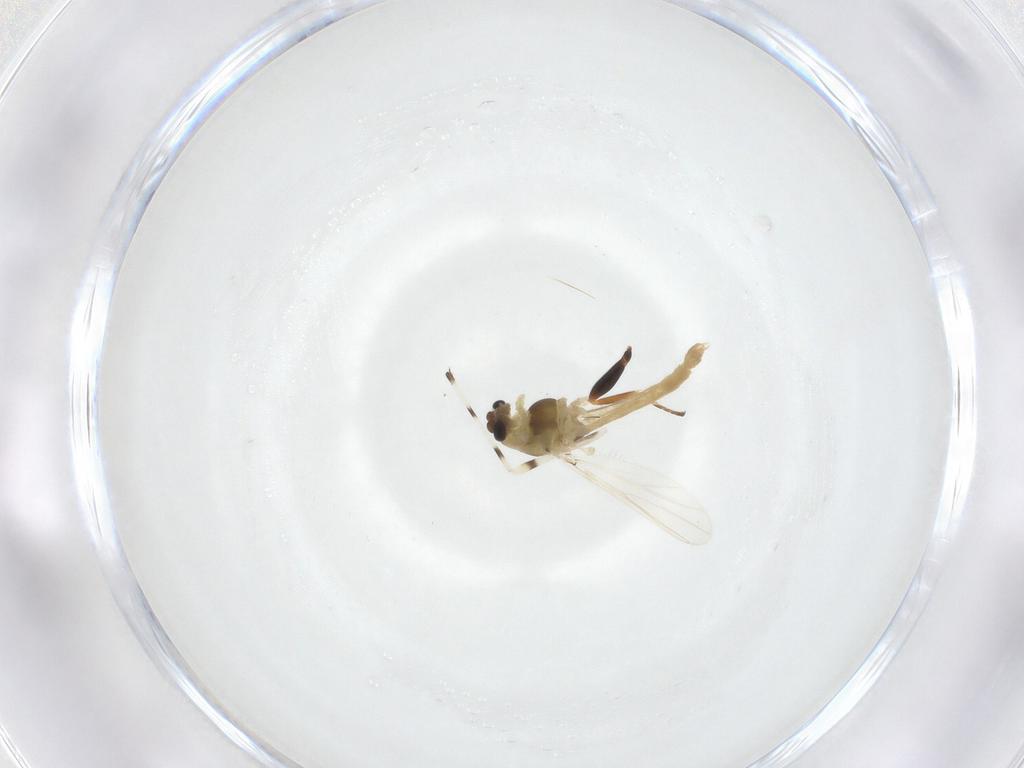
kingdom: Animalia
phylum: Arthropoda
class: Insecta
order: Diptera
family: Chironomidae
